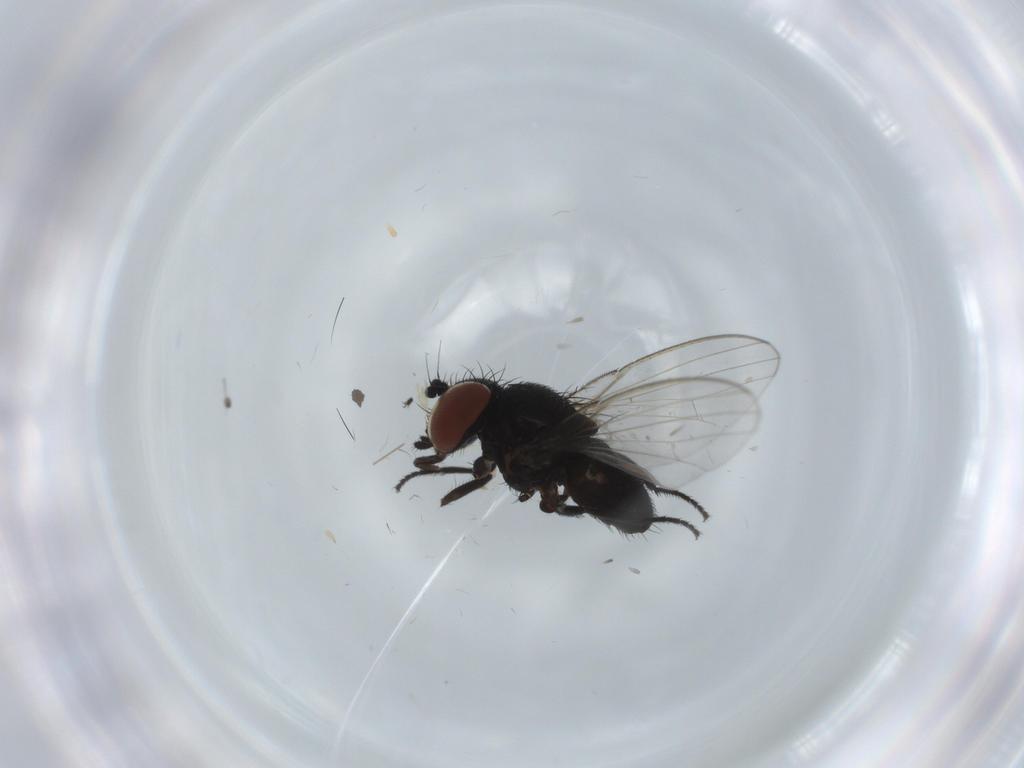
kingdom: Animalia
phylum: Arthropoda
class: Insecta
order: Diptera
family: Milichiidae
